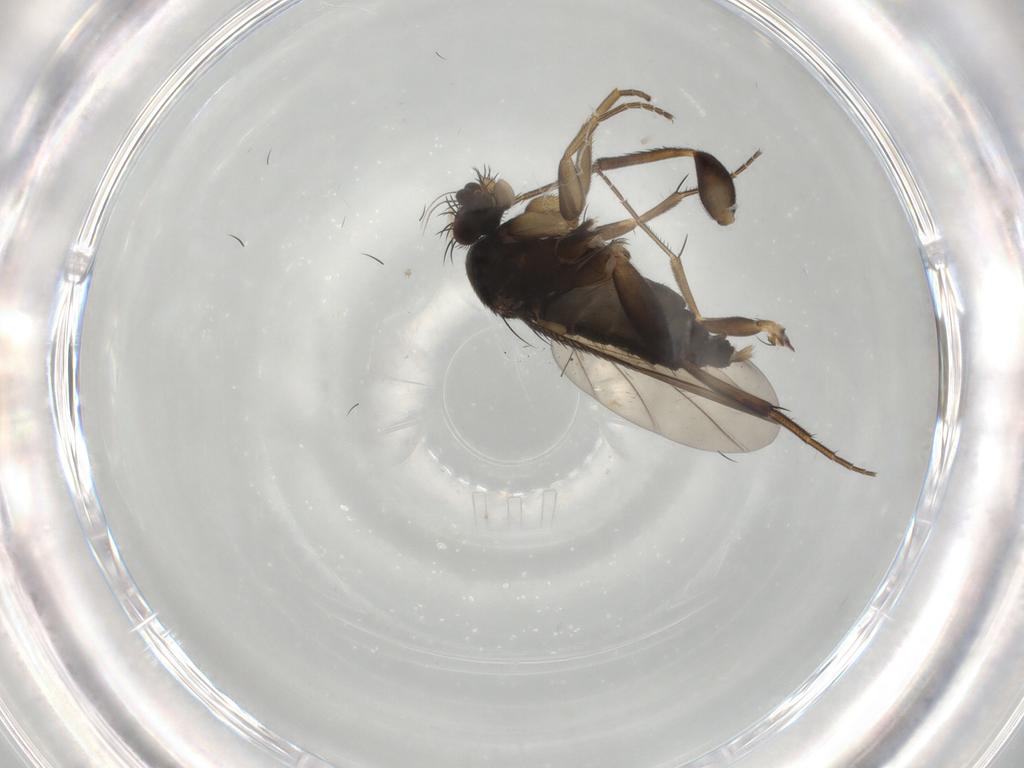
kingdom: Animalia
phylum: Arthropoda
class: Insecta
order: Diptera
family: Phoridae
